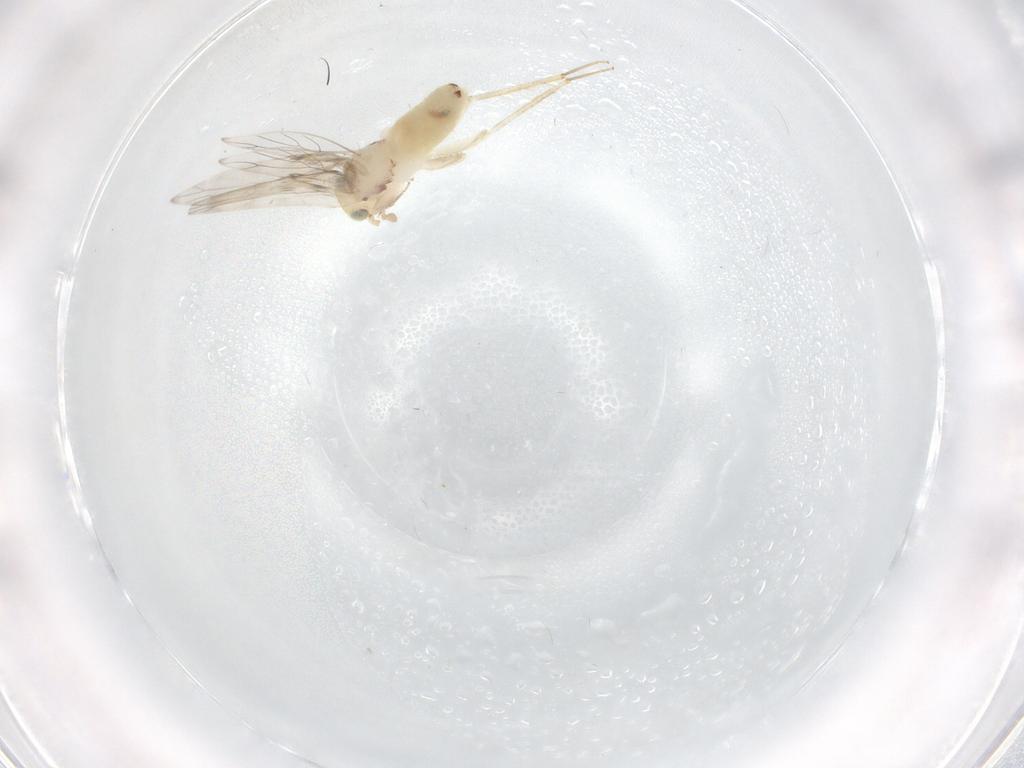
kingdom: Animalia
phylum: Arthropoda
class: Insecta
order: Psocodea
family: Lepidopsocidae
